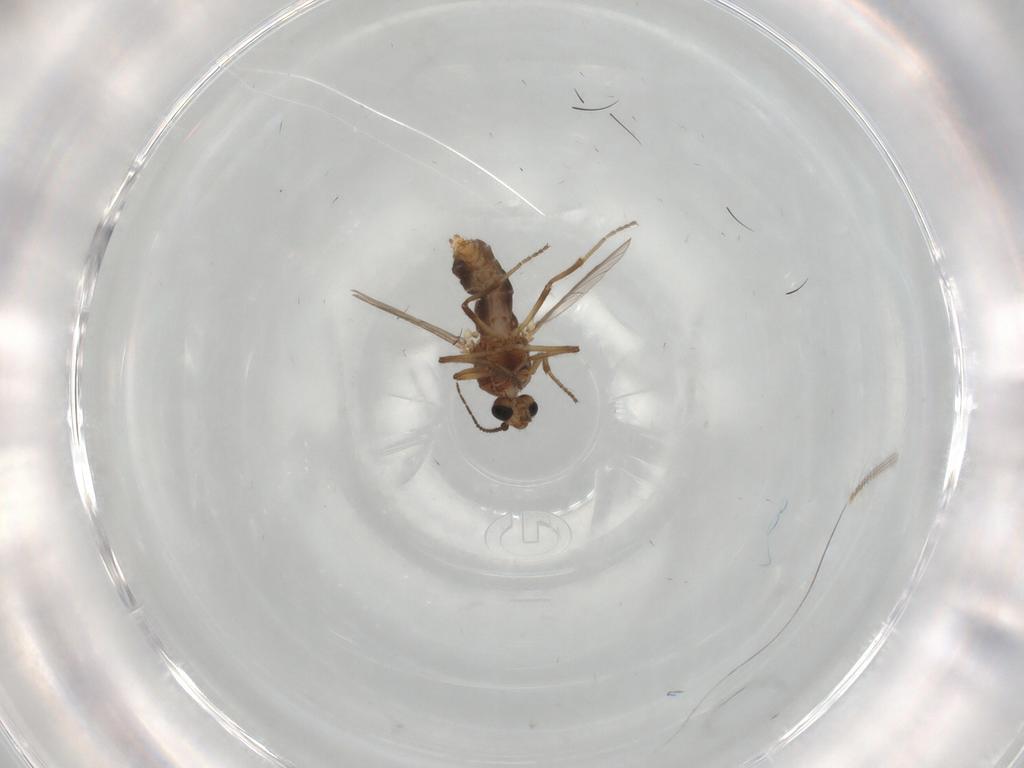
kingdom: Animalia
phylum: Arthropoda
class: Insecta
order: Diptera
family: Ceratopogonidae
